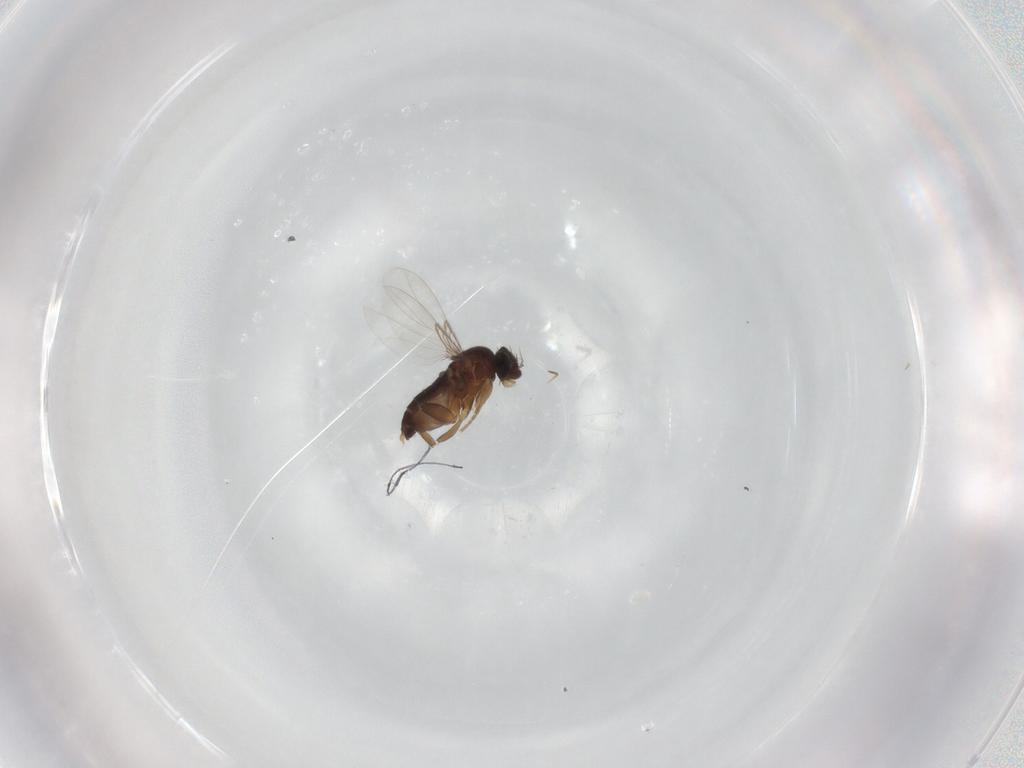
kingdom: Animalia
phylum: Arthropoda
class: Insecta
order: Diptera
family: Phoridae
